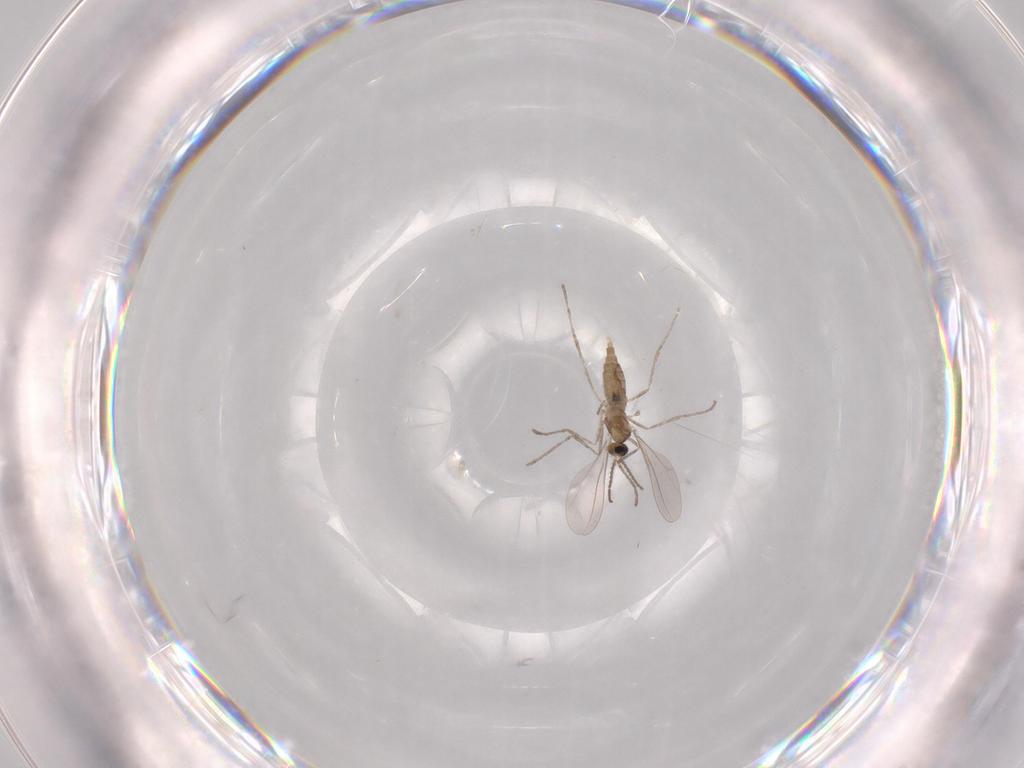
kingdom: Animalia
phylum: Arthropoda
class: Insecta
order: Diptera
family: Cecidomyiidae
